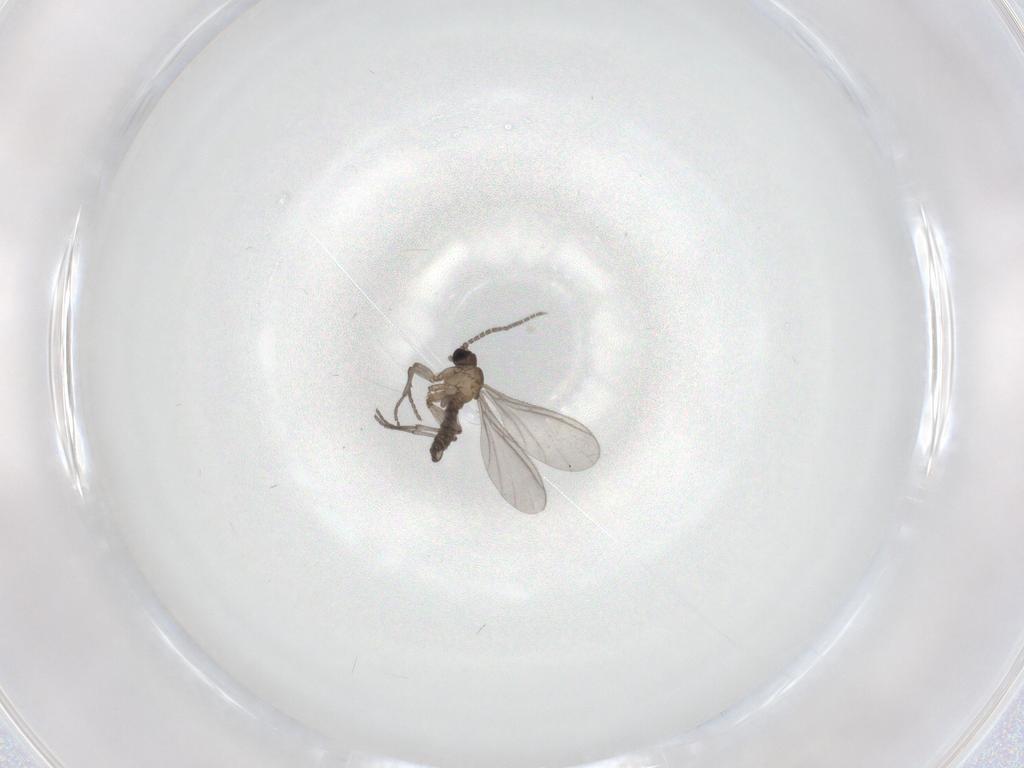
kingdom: Animalia
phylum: Arthropoda
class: Insecta
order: Diptera
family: Sciaridae
